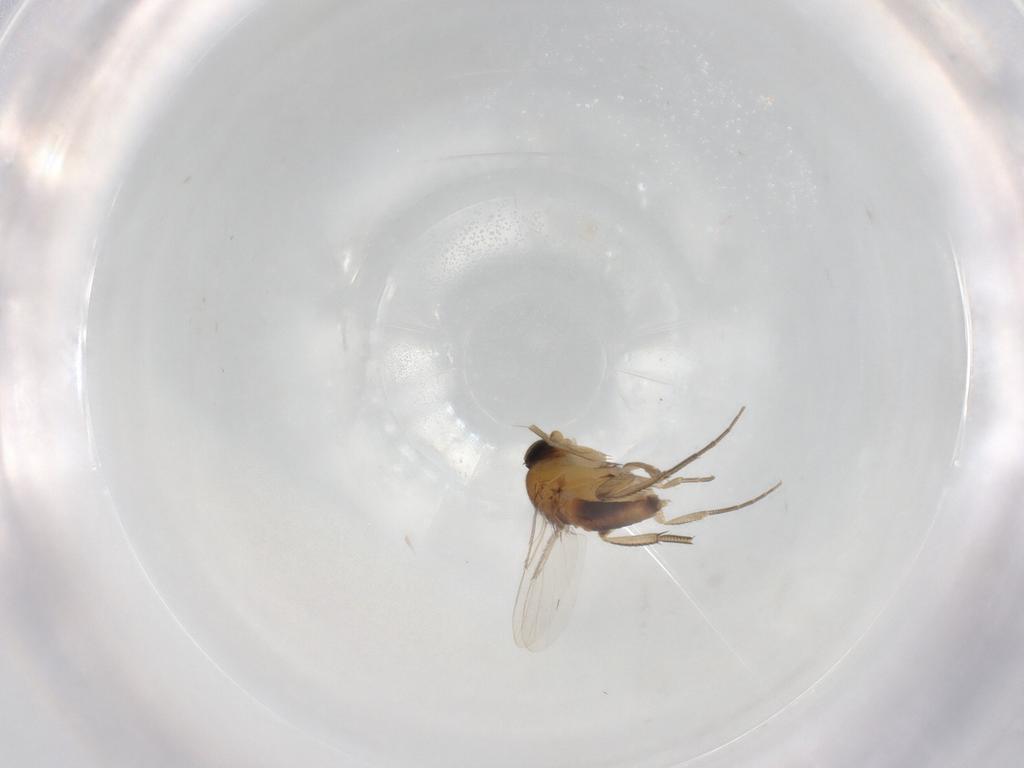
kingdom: Animalia
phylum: Arthropoda
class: Insecta
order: Diptera
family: Phoridae
